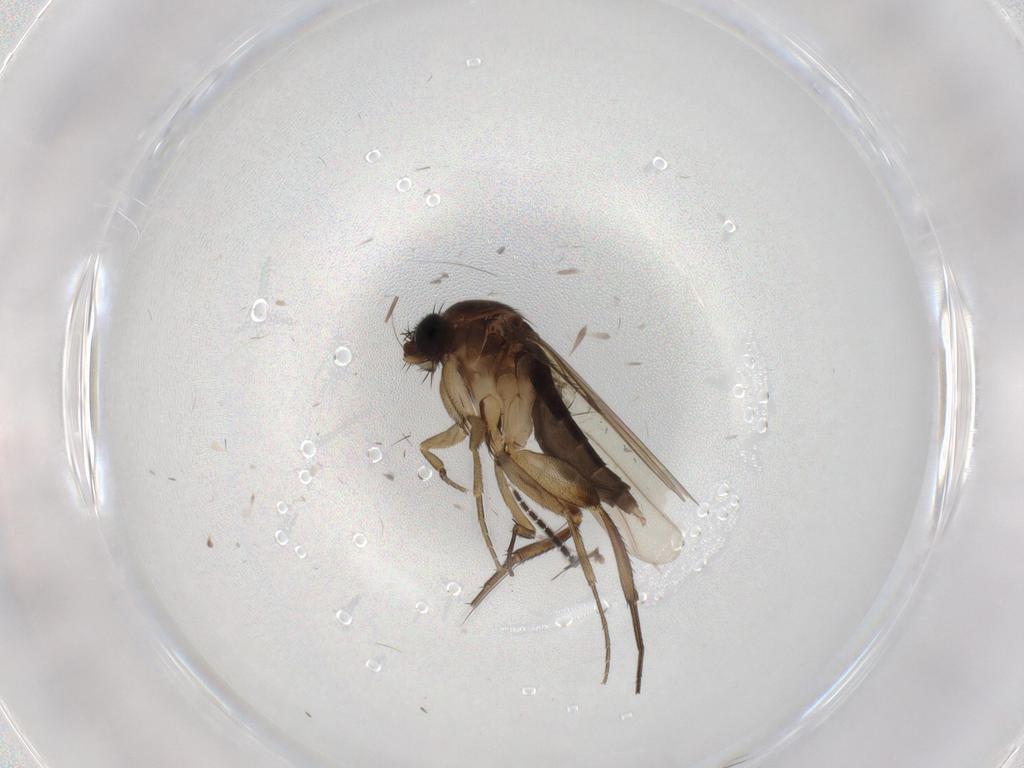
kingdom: Animalia
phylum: Arthropoda
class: Insecta
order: Diptera
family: Phoridae
